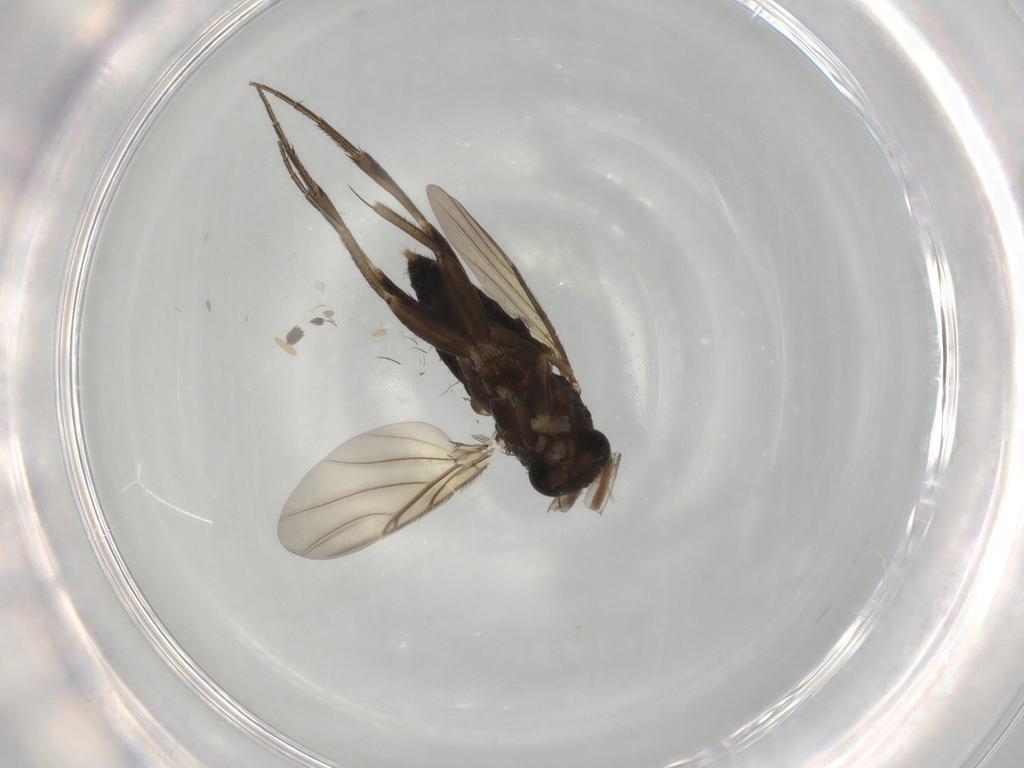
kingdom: Animalia
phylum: Arthropoda
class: Insecta
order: Diptera
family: Phoridae
